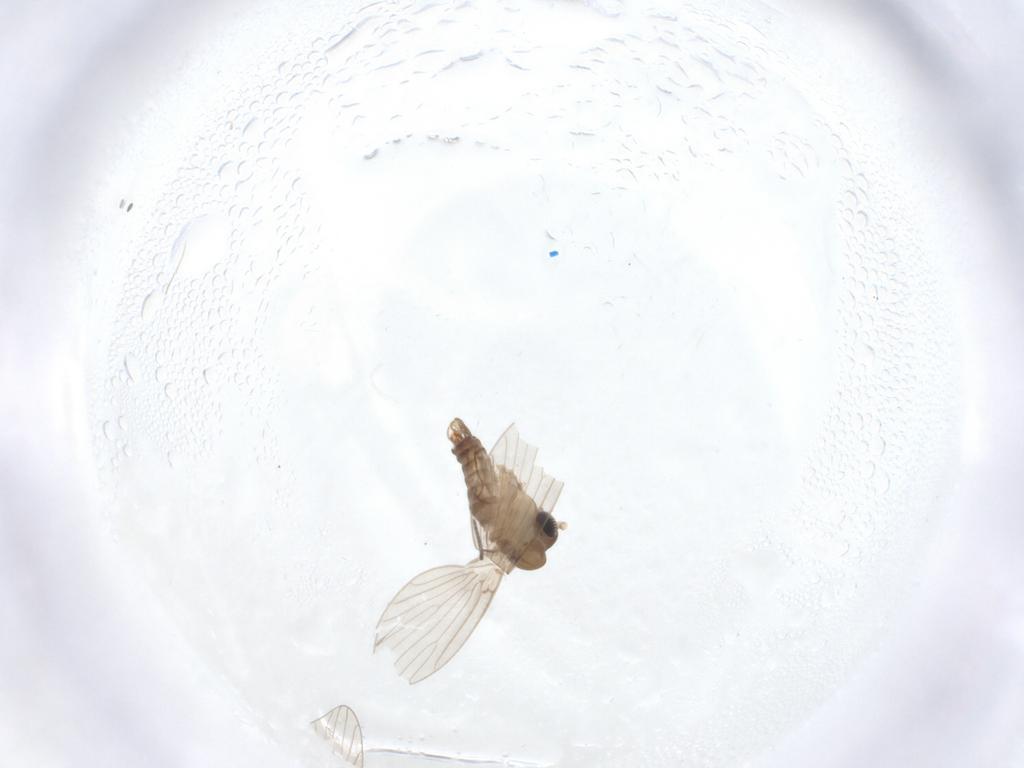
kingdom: Animalia
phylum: Arthropoda
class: Insecta
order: Diptera
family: Sciaridae
